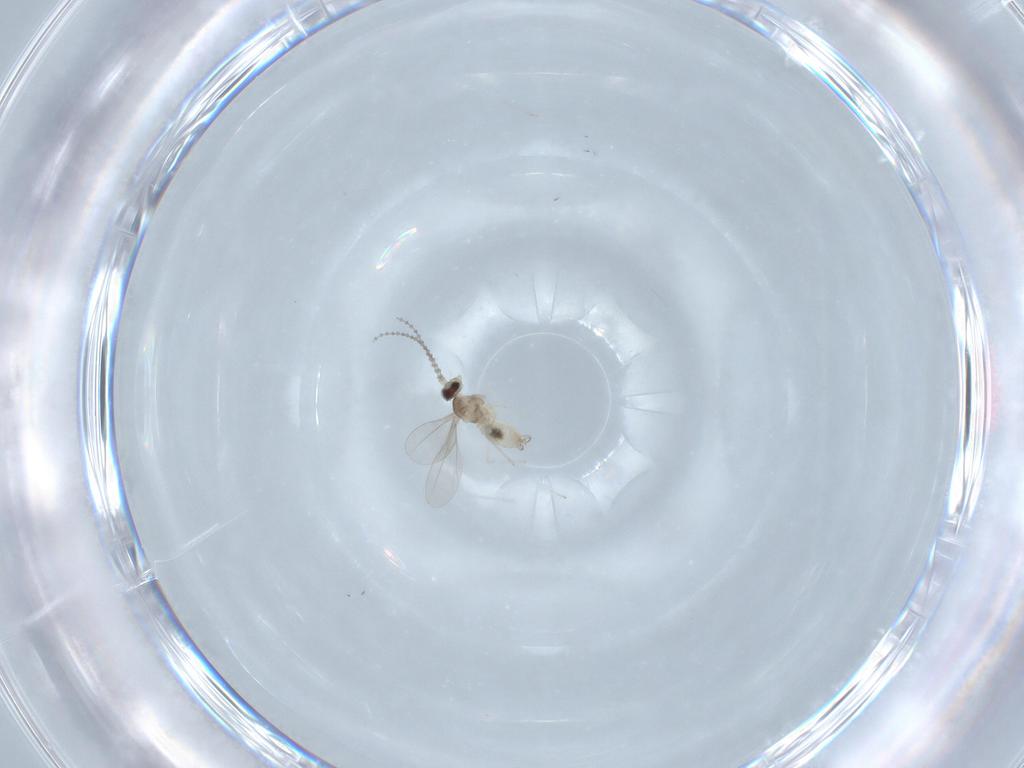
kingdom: Animalia
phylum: Arthropoda
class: Insecta
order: Diptera
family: Cecidomyiidae
